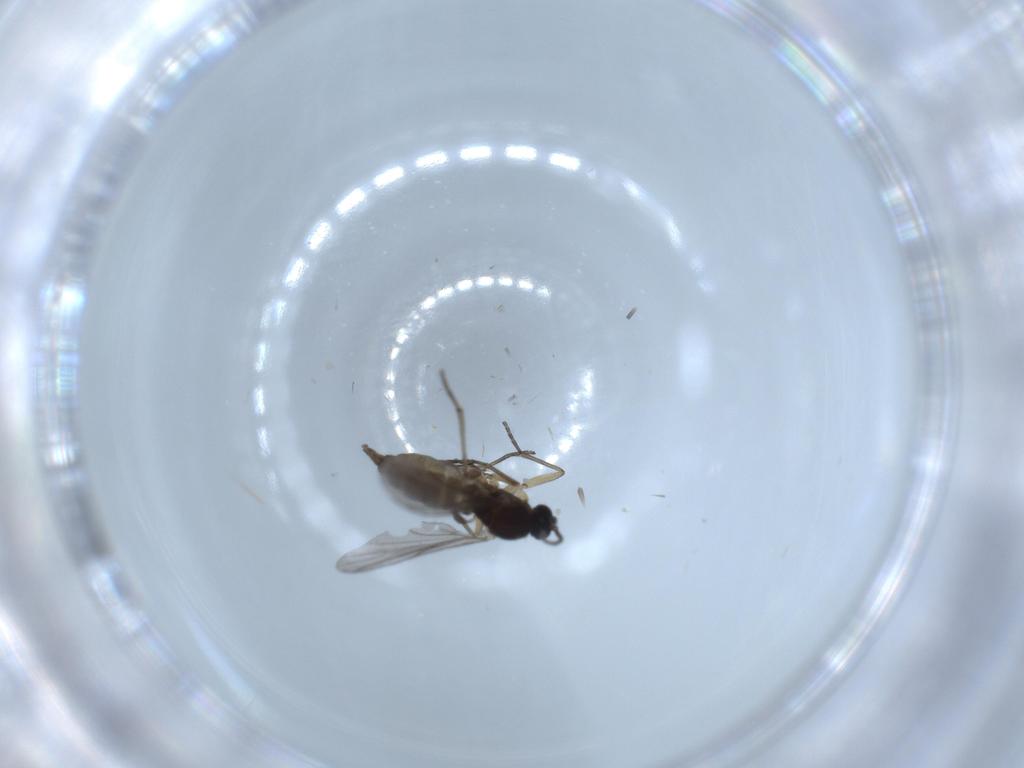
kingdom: Animalia
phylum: Arthropoda
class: Insecta
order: Diptera
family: Sciaridae
